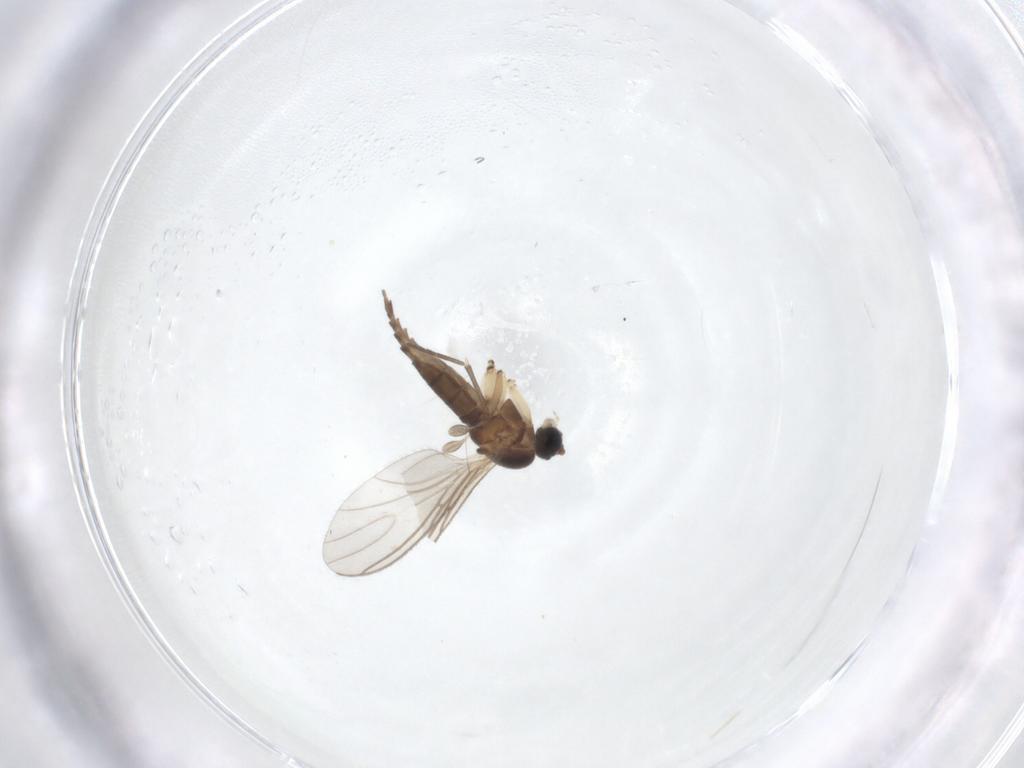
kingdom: Animalia
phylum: Arthropoda
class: Insecta
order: Diptera
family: Sciaridae
